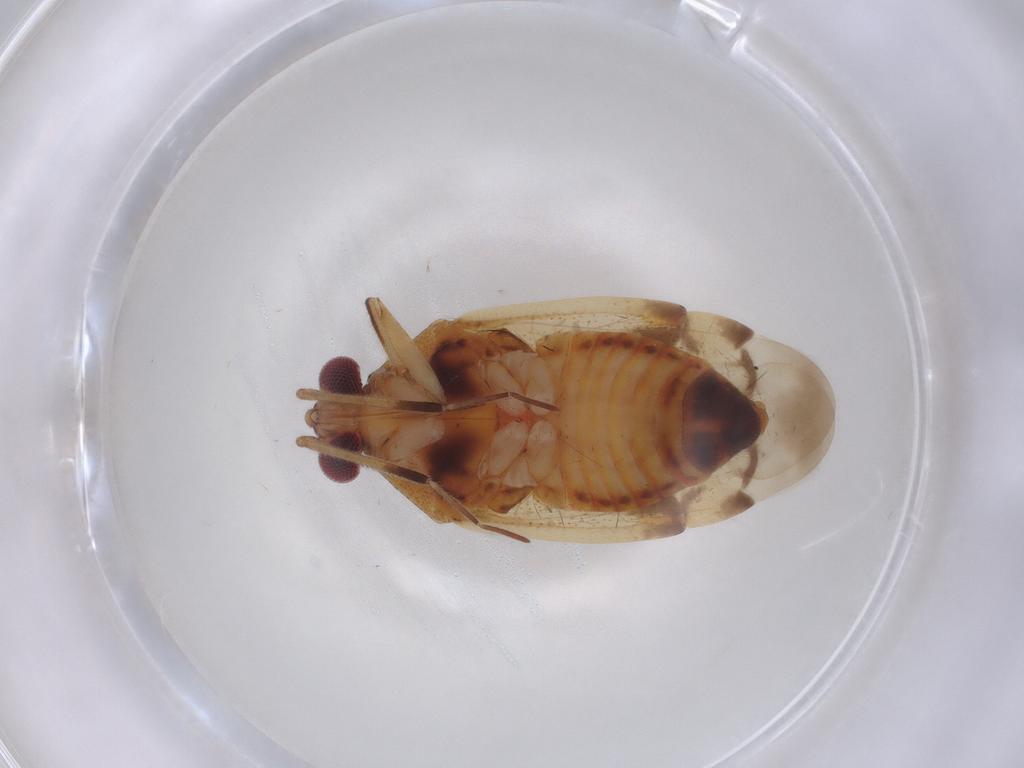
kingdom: Animalia
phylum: Arthropoda
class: Insecta
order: Hemiptera
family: Miridae
